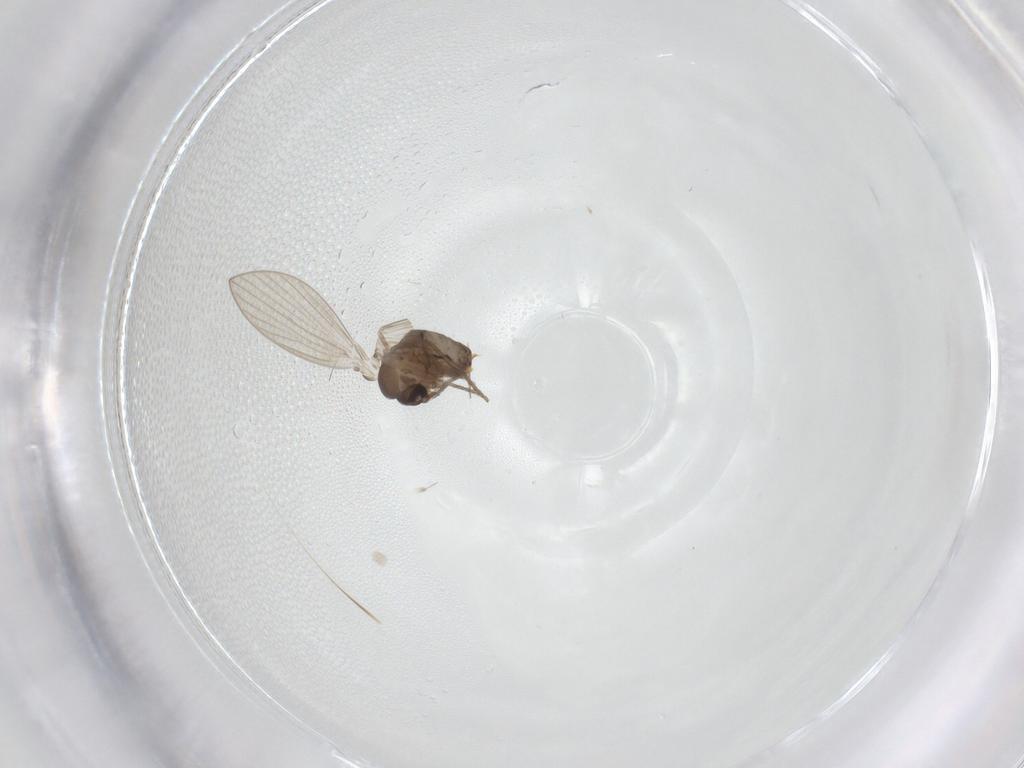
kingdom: Animalia
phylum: Arthropoda
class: Insecta
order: Diptera
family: Psychodidae
